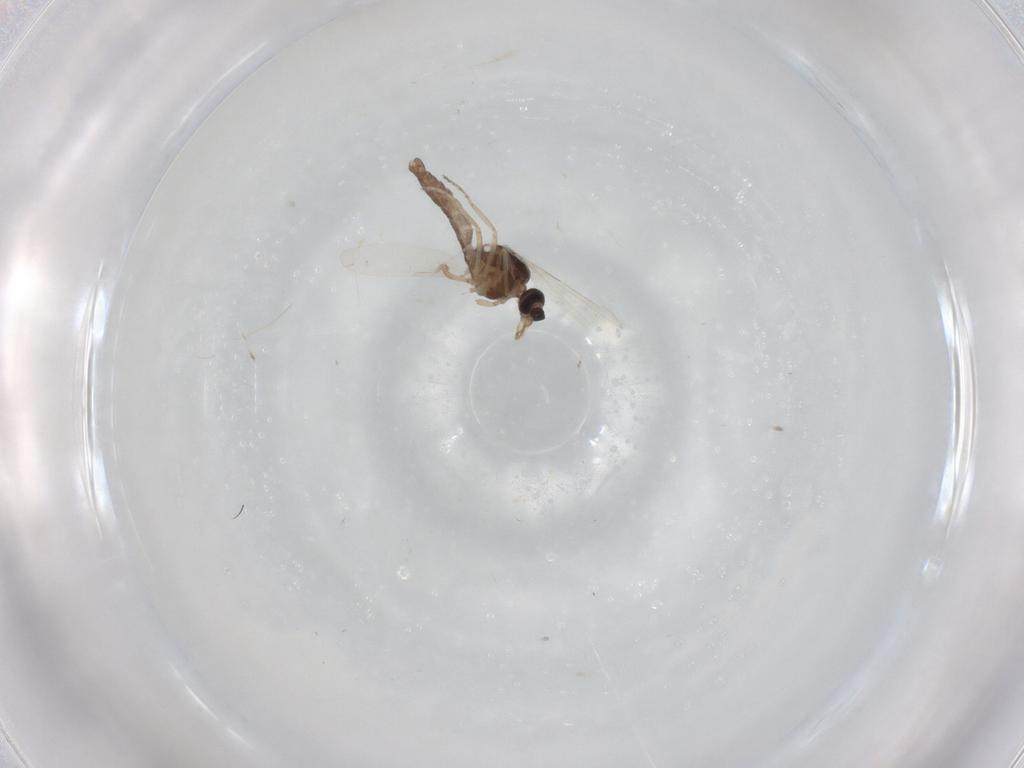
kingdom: Animalia
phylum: Arthropoda
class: Insecta
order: Diptera
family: Ceratopogonidae
